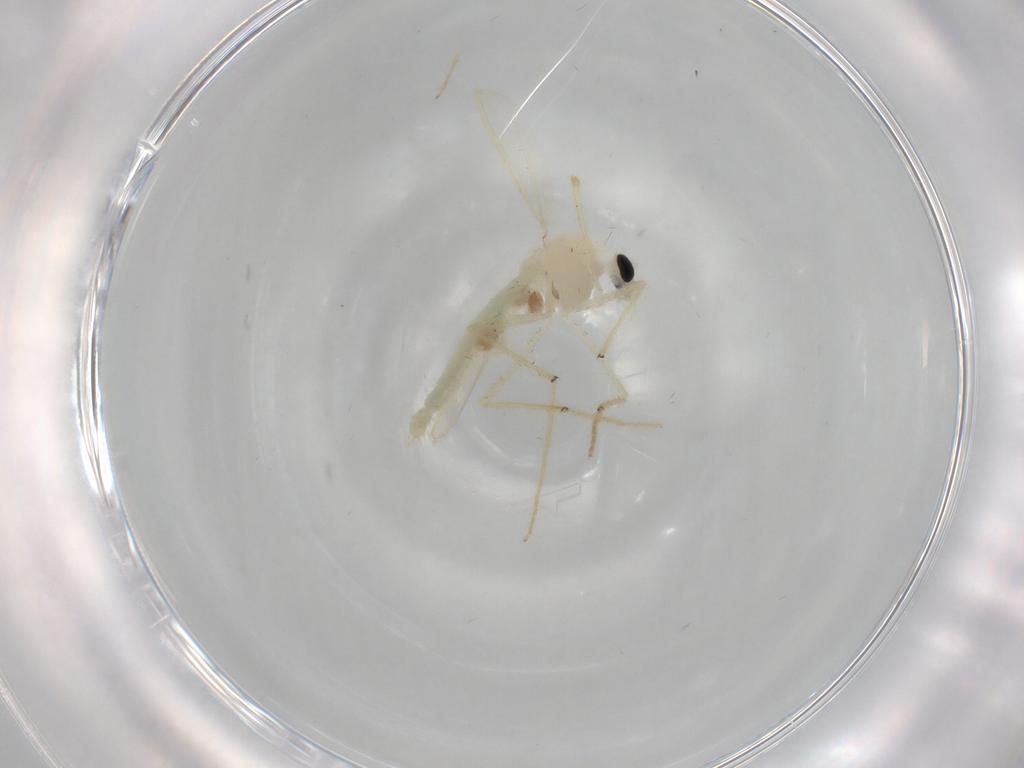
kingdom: Animalia
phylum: Arthropoda
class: Insecta
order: Diptera
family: Chironomidae
